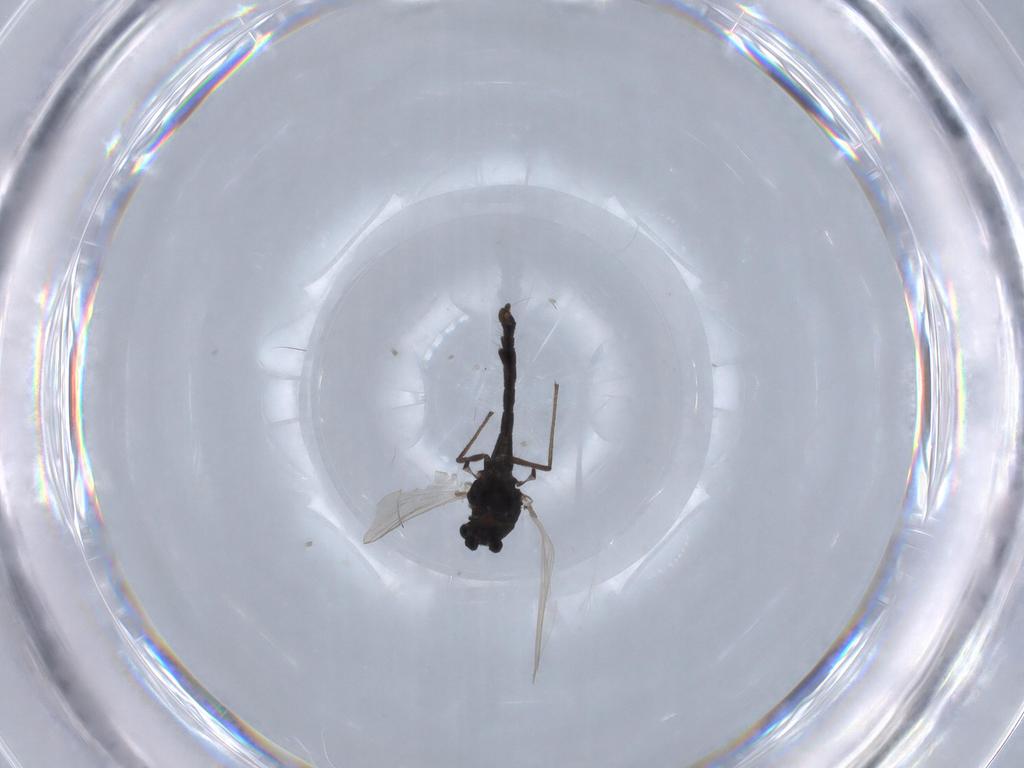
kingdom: Animalia
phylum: Arthropoda
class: Insecta
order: Diptera
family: Chironomidae
